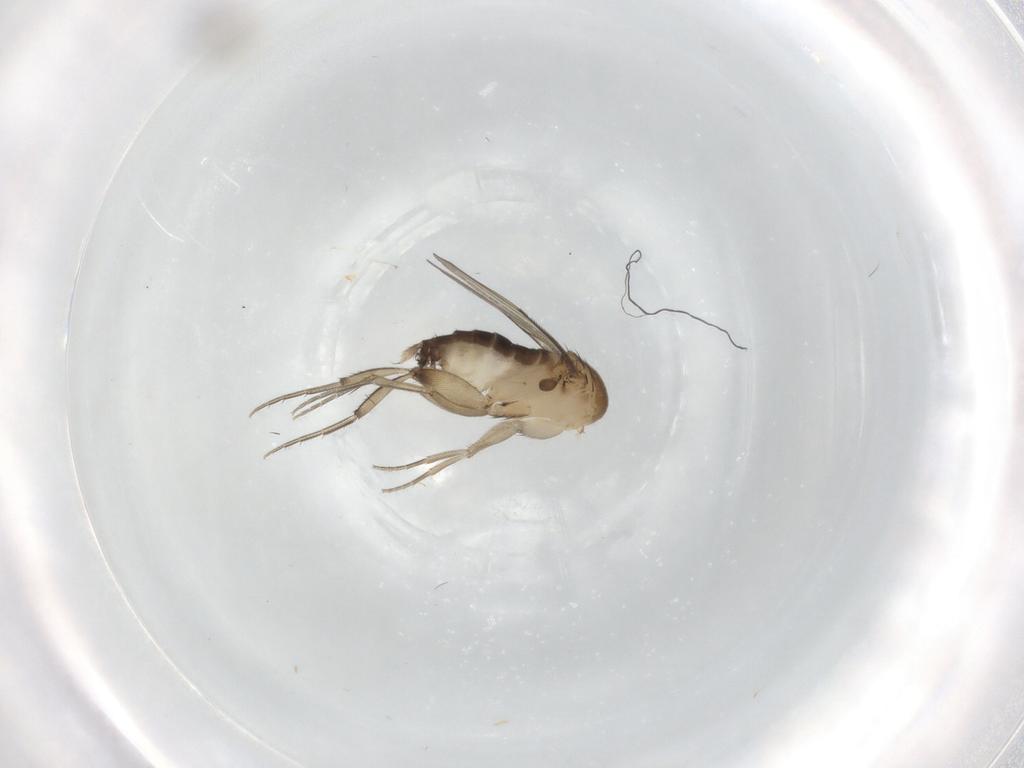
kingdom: Animalia
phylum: Arthropoda
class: Insecta
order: Diptera
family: Phoridae
